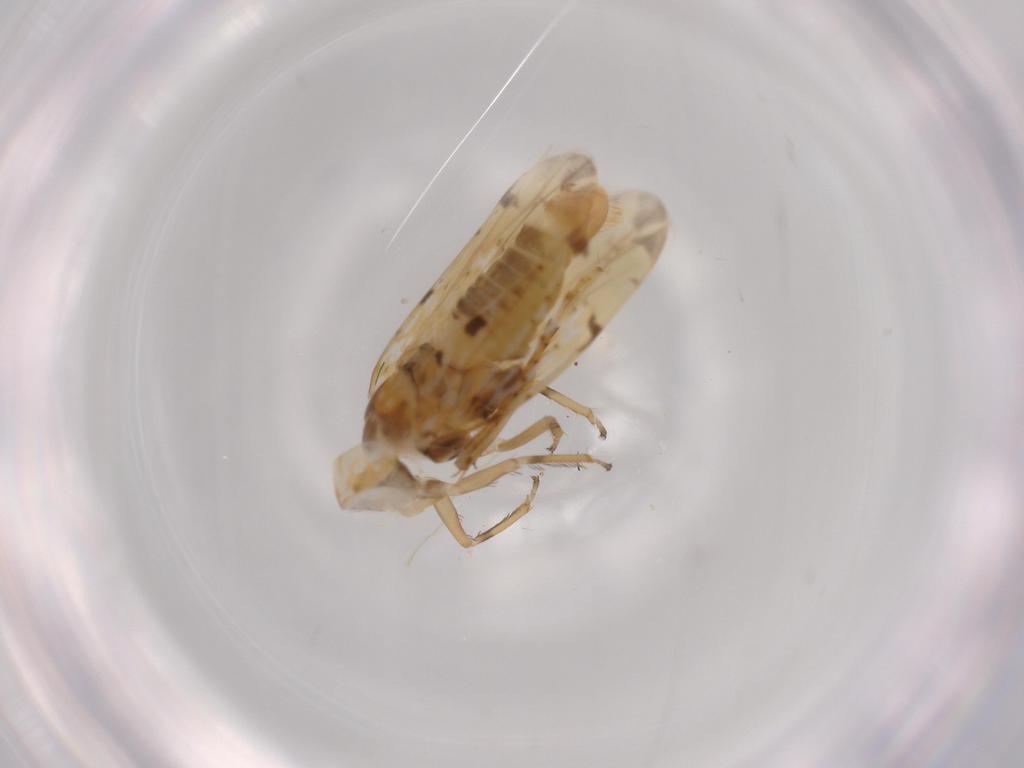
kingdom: Animalia
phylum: Arthropoda
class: Insecta
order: Hemiptera
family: Cicadellidae
